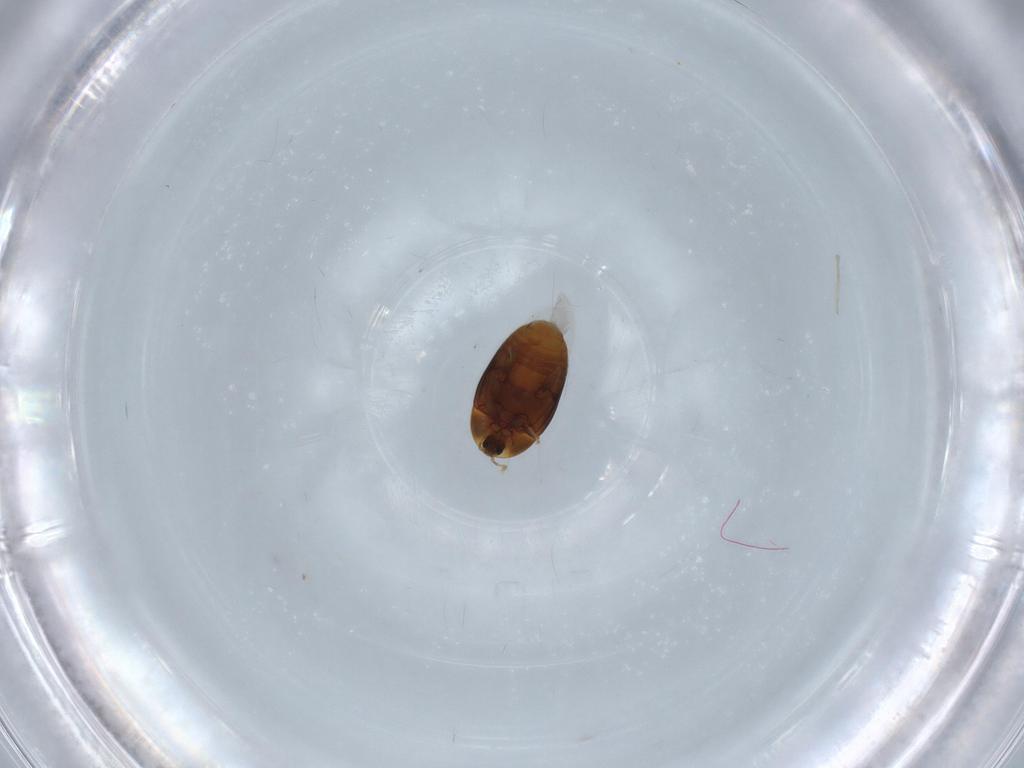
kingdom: Animalia
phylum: Arthropoda
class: Insecta
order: Coleoptera
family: Corylophidae
